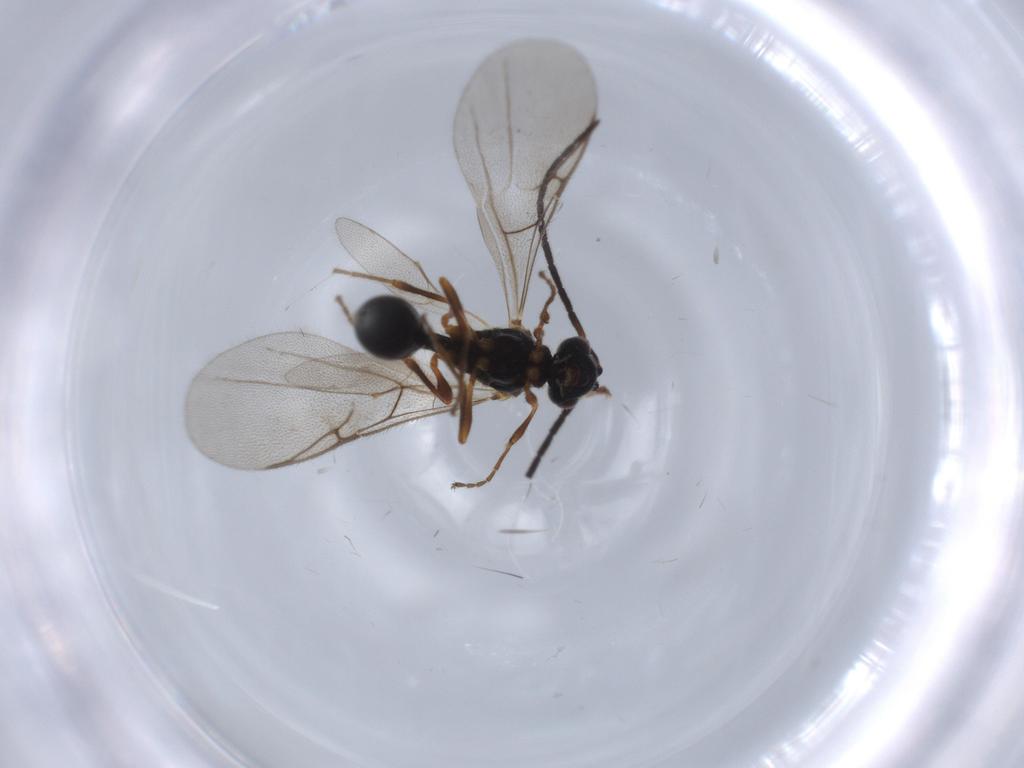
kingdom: Animalia
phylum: Arthropoda
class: Insecta
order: Hymenoptera
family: Diapriidae
